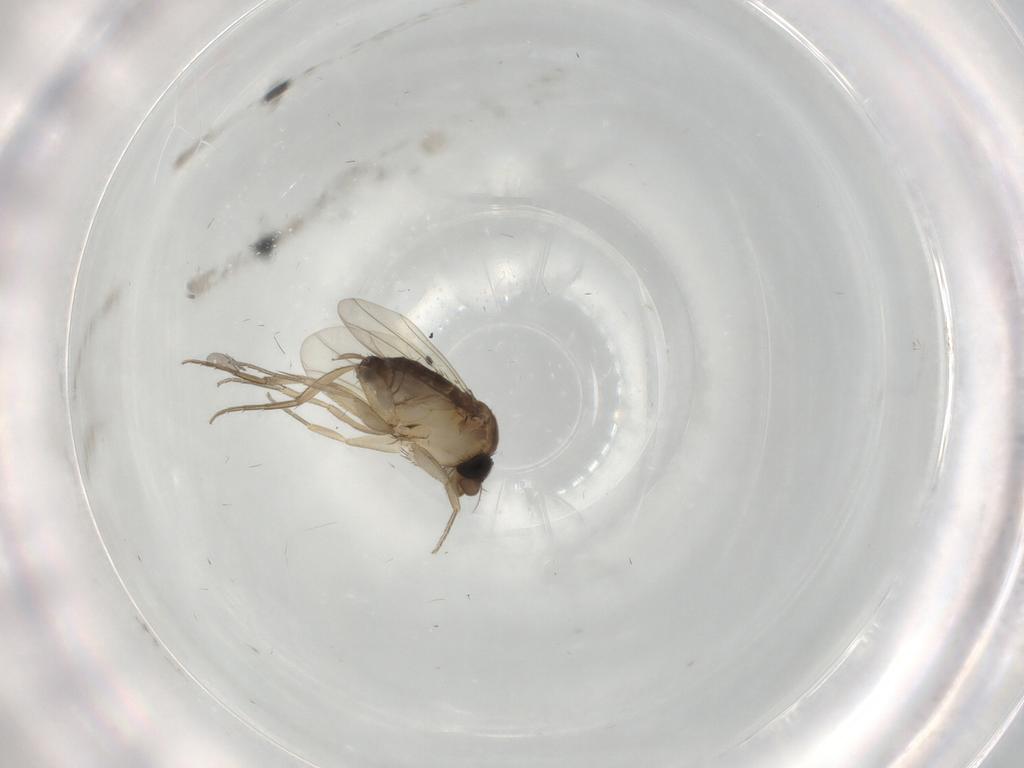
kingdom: Animalia
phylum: Arthropoda
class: Insecta
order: Diptera
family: Phoridae
